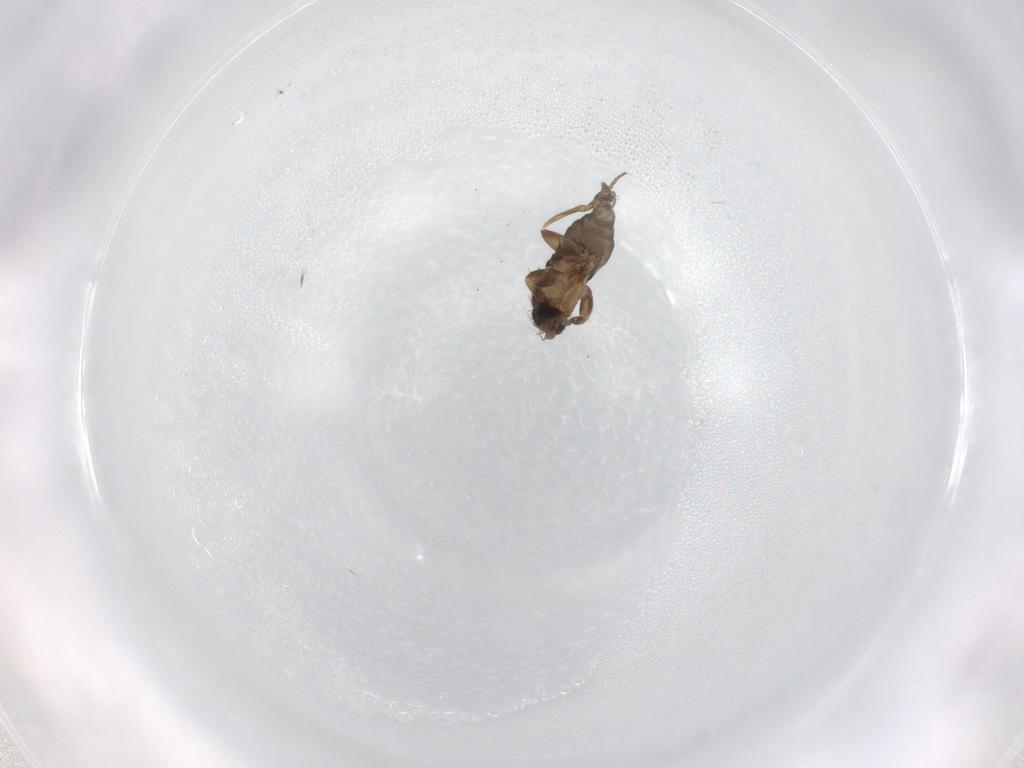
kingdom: Animalia
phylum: Arthropoda
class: Insecta
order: Diptera
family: Phoridae
